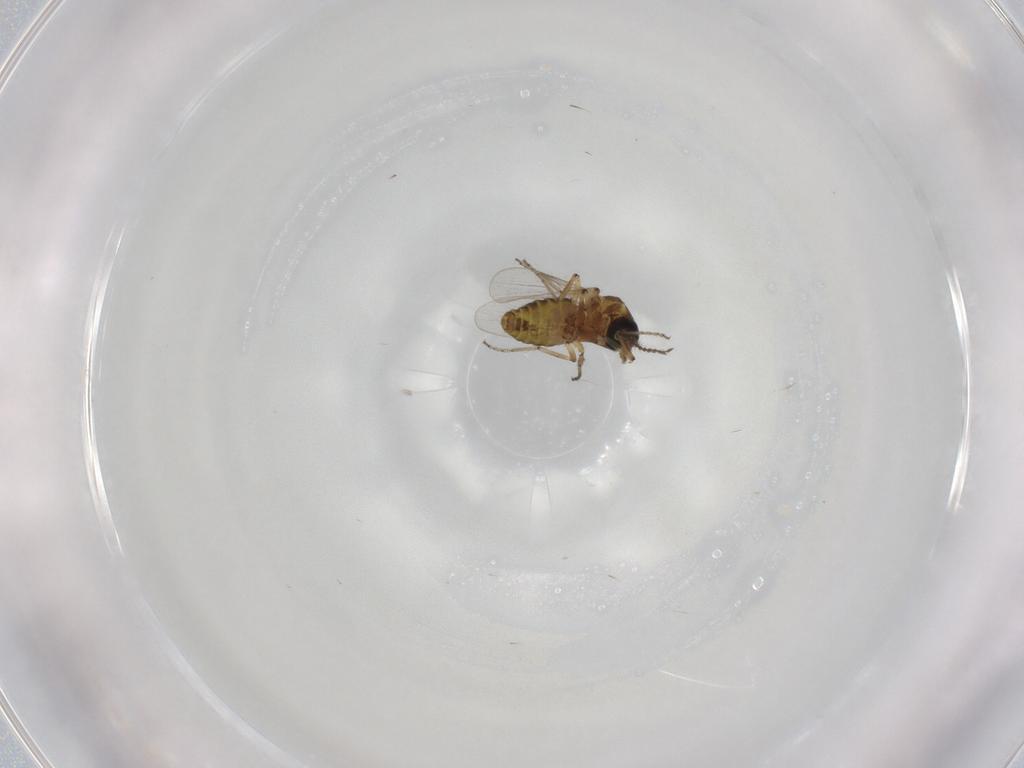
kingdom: Animalia
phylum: Arthropoda
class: Insecta
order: Diptera
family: Ceratopogonidae
